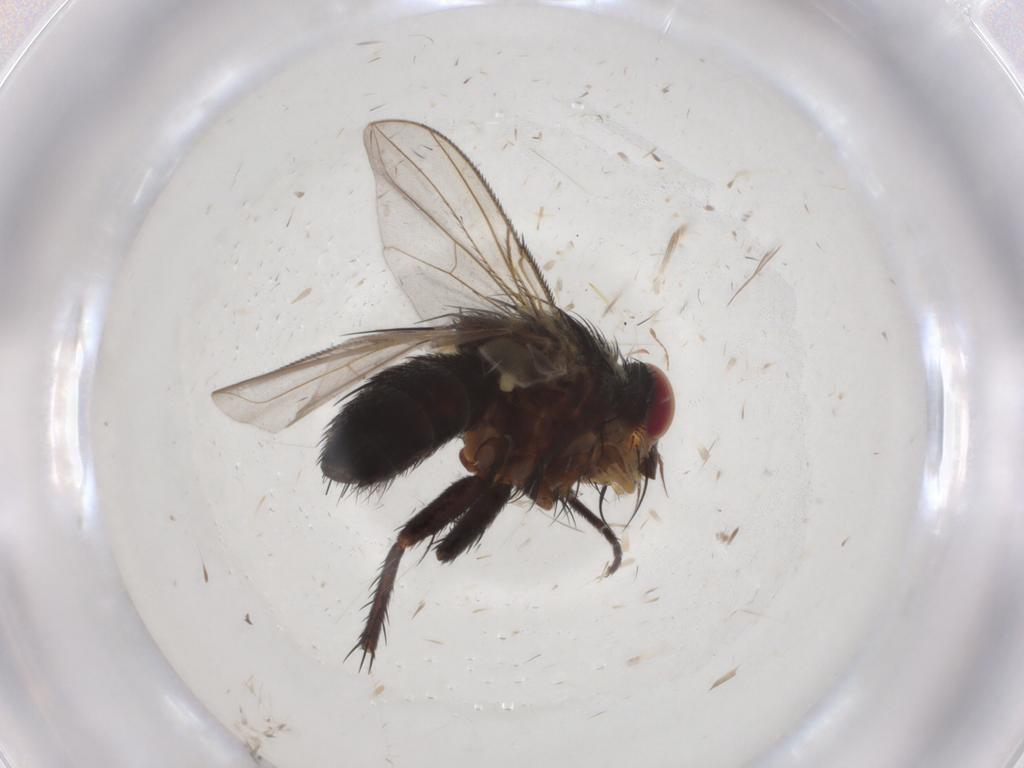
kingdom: Animalia
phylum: Arthropoda
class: Insecta
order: Diptera
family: Tachinidae
